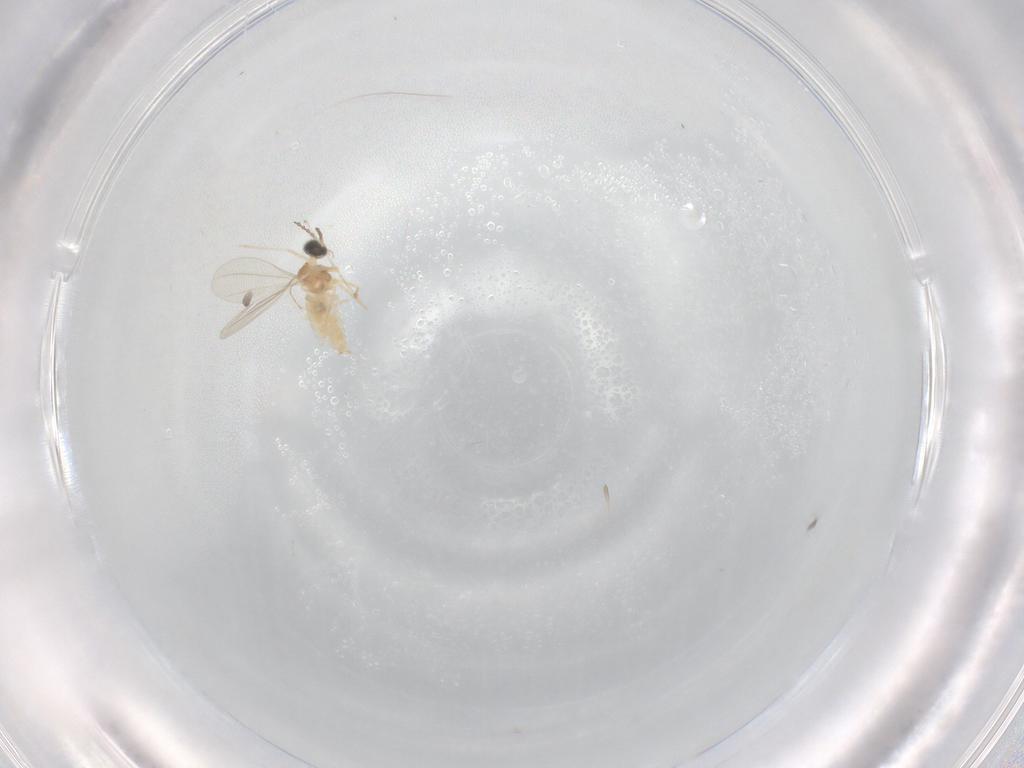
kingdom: Animalia
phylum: Arthropoda
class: Insecta
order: Diptera
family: Cecidomyiidae
